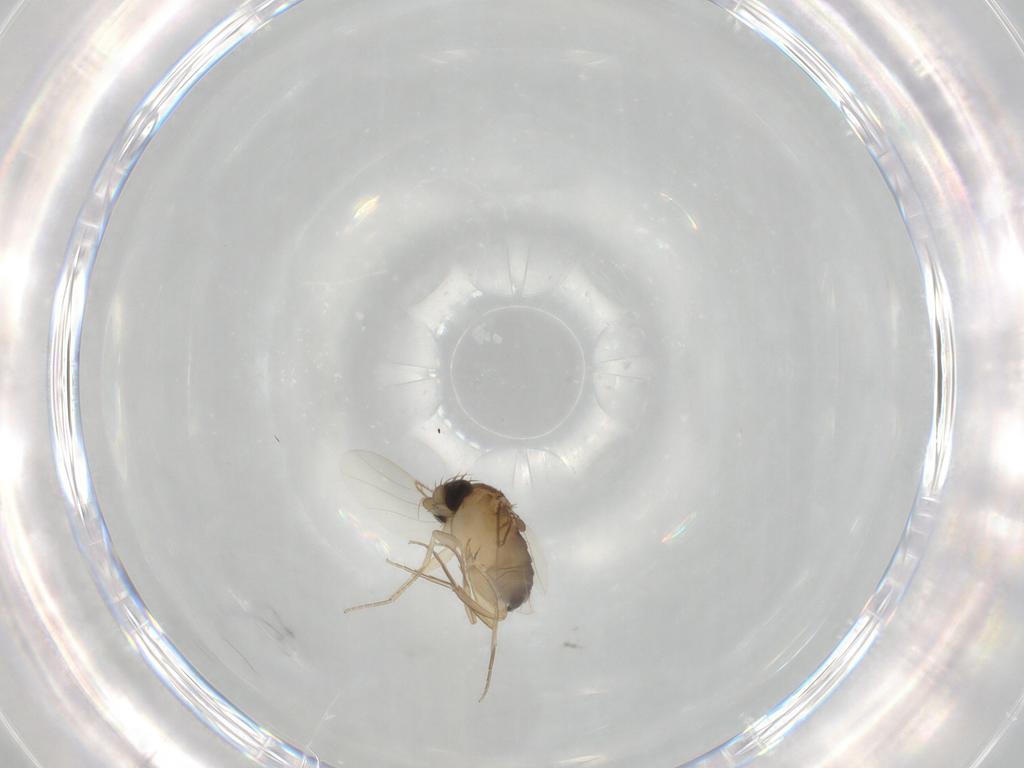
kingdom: Animalia
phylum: Arthropoda
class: Insecta
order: Diptera
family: Phoridae
